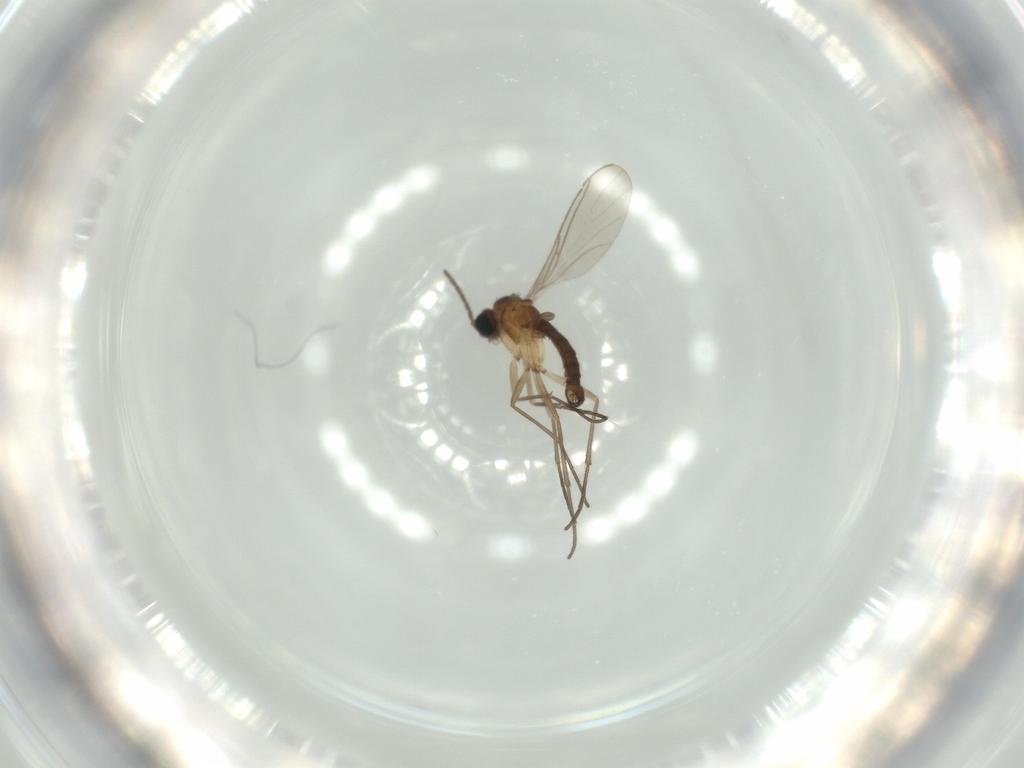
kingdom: Animalia
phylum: Arthropoda
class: Insecta
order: Diptera
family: Sciaridae
